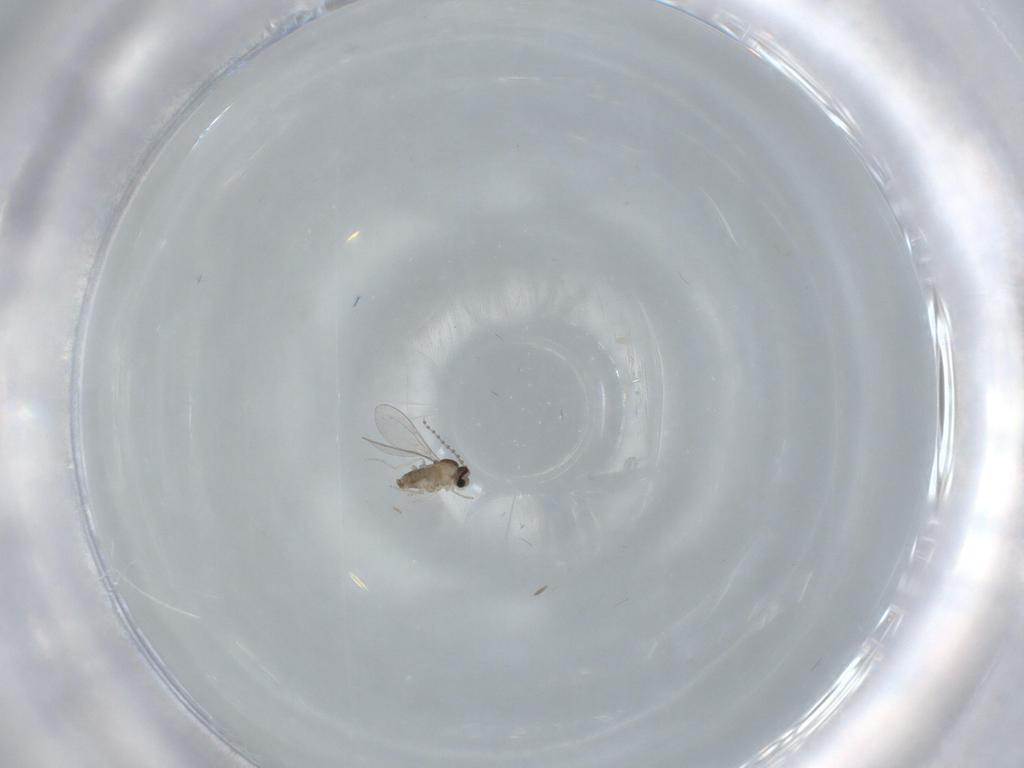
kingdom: Animalia
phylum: Arthropoda
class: Insecta
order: Diptera
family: Cecidomyiidae
